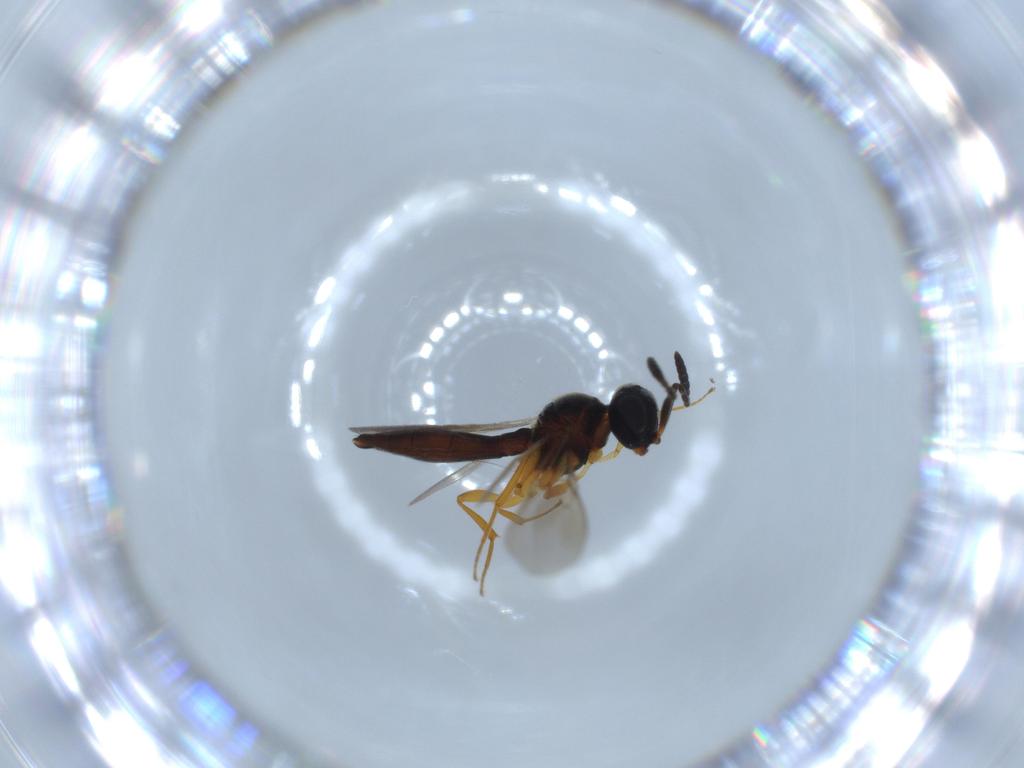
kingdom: Animalia
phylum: Arthropoda
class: Insecta
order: Hymenoptera
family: Scelionidae
